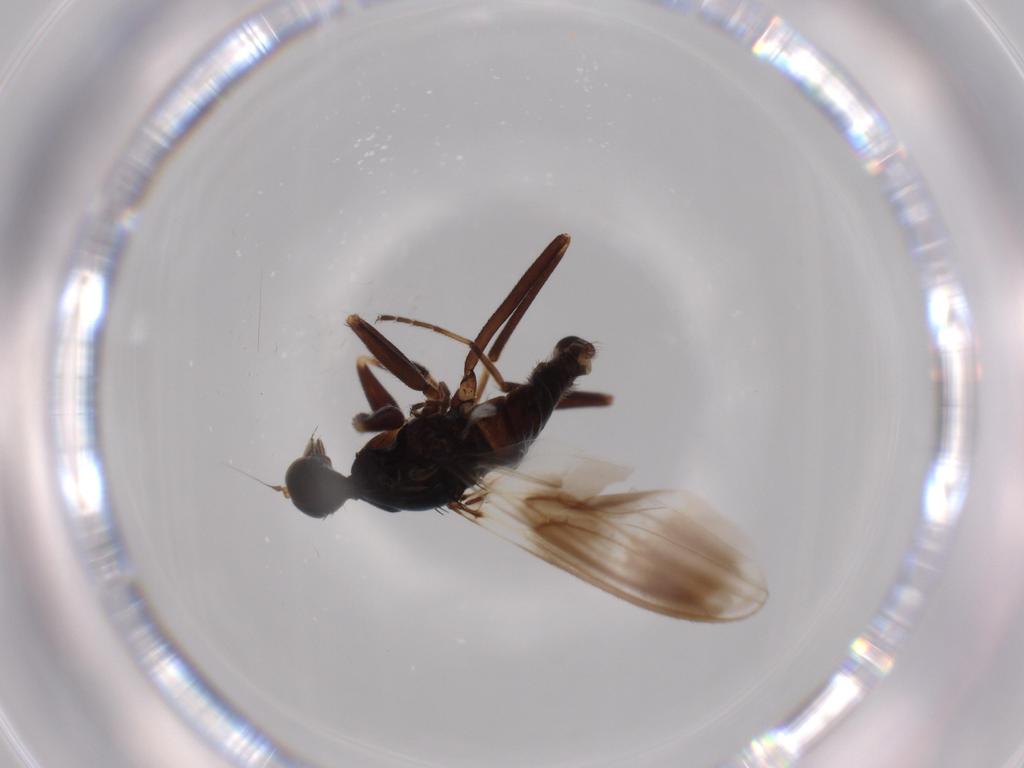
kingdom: Animalia
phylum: Arthropoda
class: Insecta
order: Diptera
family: Hybotidae
